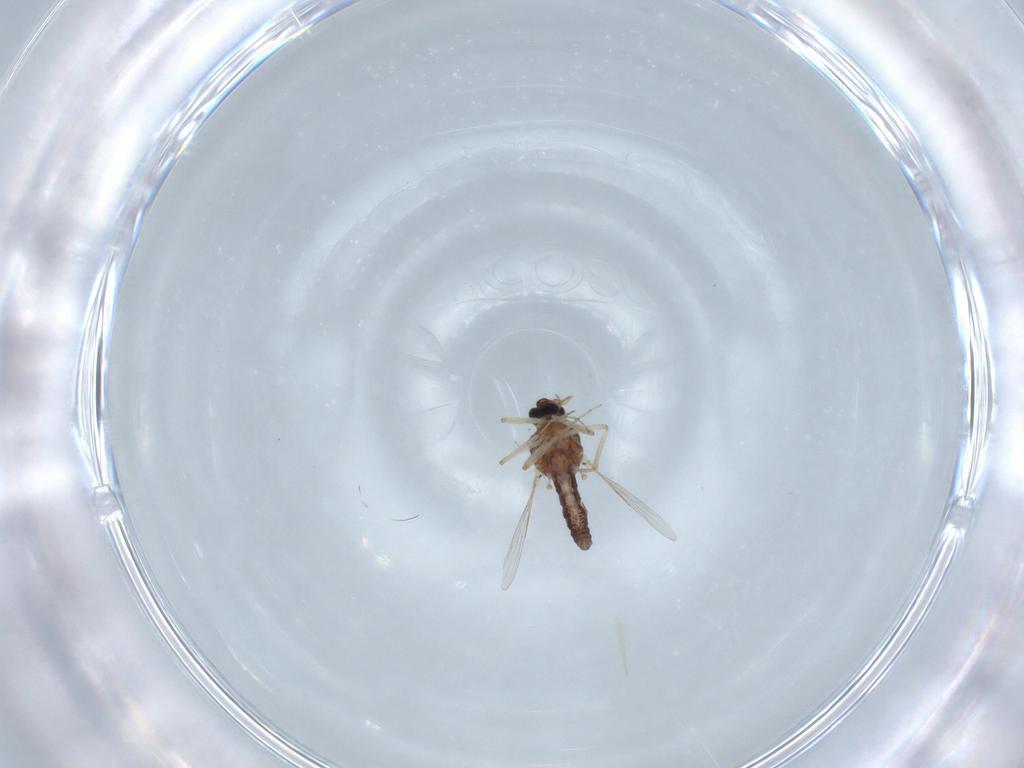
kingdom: Animalia
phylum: Arthropoda
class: Insecta
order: Diptera
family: Ceratopogonidae
